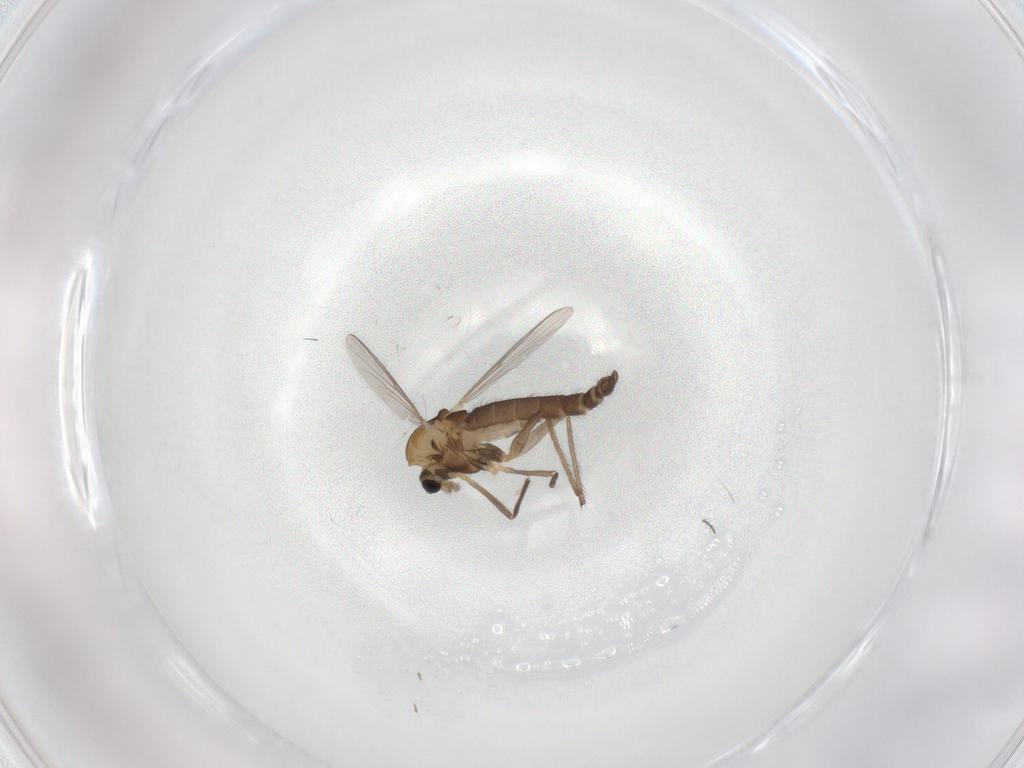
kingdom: Animalia
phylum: Arthropoda
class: Insecta
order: Diptera
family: Chironomidae
